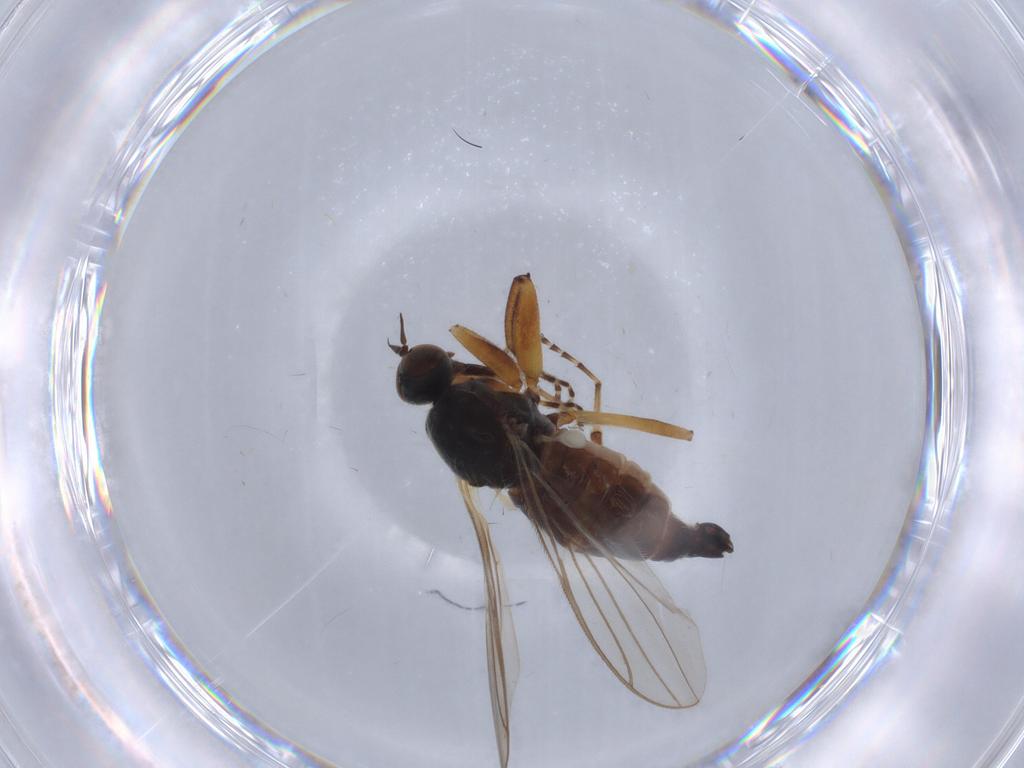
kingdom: Animalia
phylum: Arthropoda
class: Insecta
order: Diptera
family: Hybotidae
